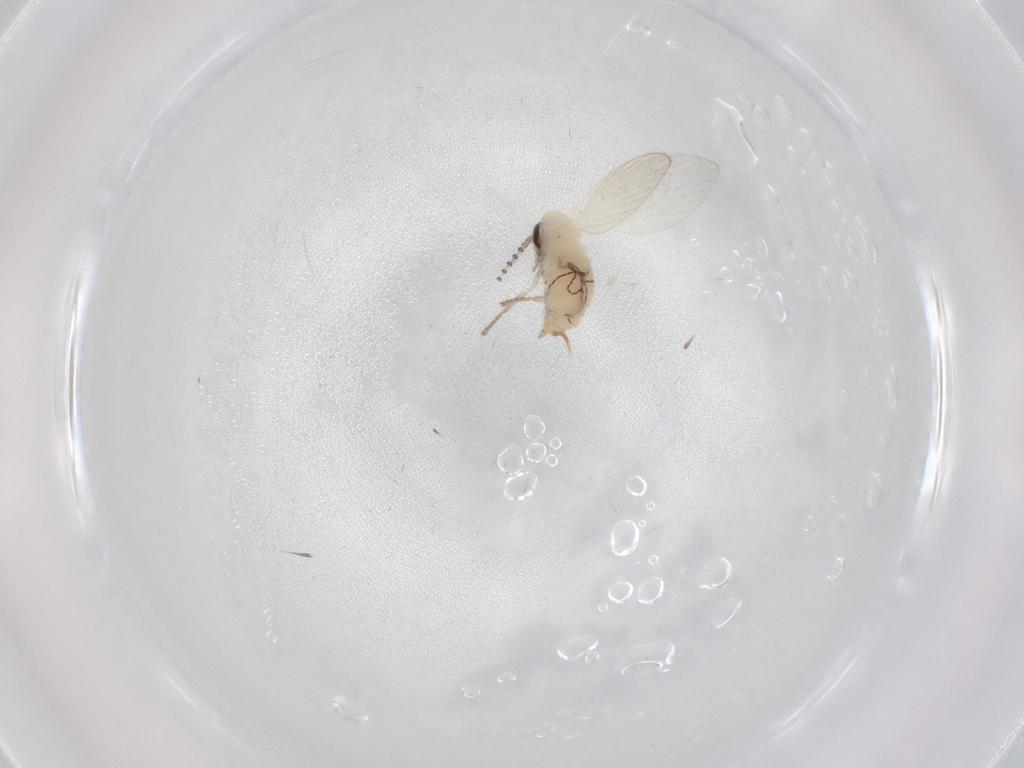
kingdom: Animalia
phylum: Arthropoda
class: Insecta
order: Diptera
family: Psychodidae
